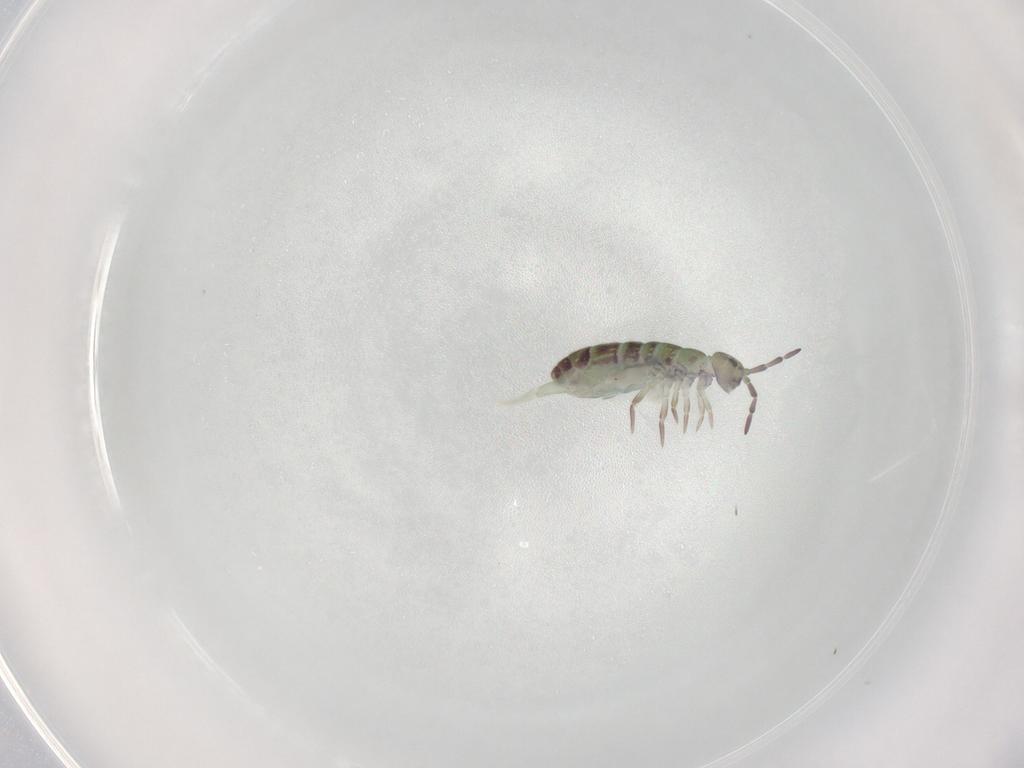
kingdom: Animalia
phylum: Arthropoda
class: Collembola
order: Entomobryomorpha
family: Isotomidae
